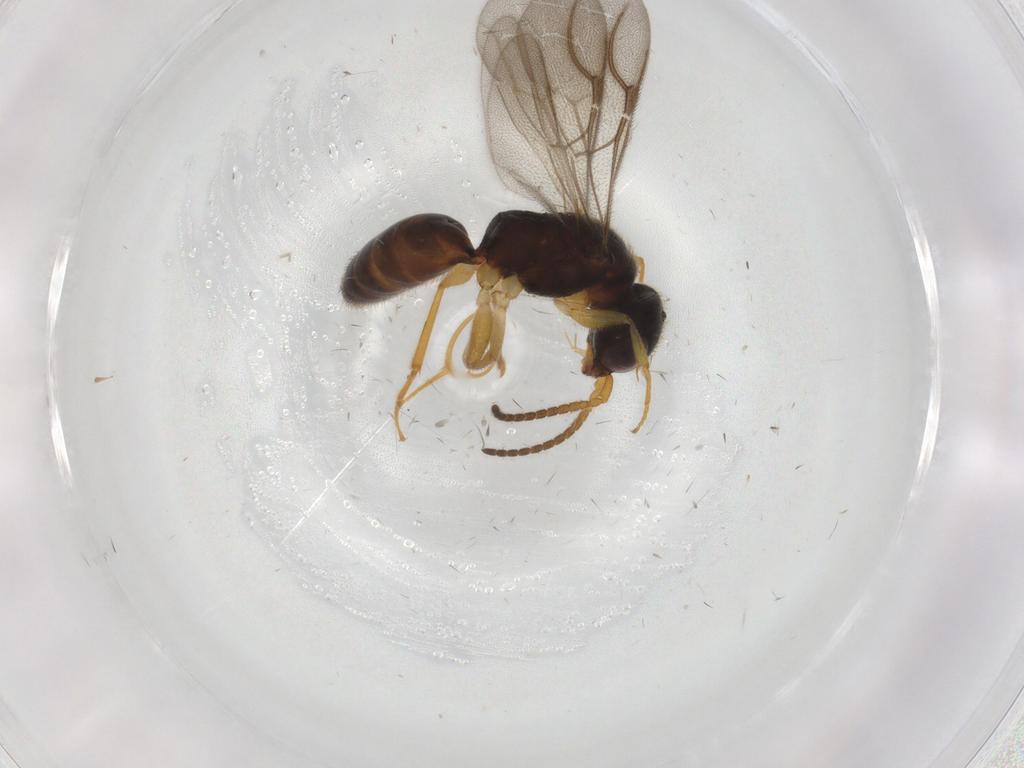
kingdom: Animalia
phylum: Arthropoda
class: Insecta
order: Hymenoptera
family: Bethylidae
